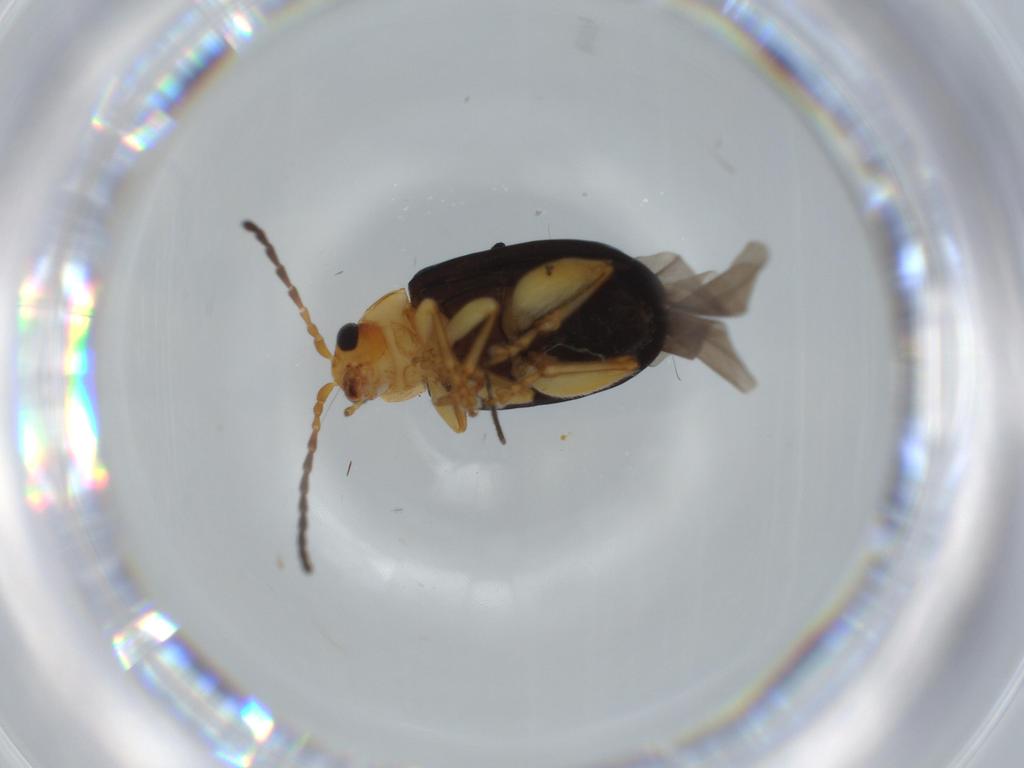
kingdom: Animalia
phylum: Arthropoda
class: Insecta
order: Coleoptera
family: Chrysomelidae
